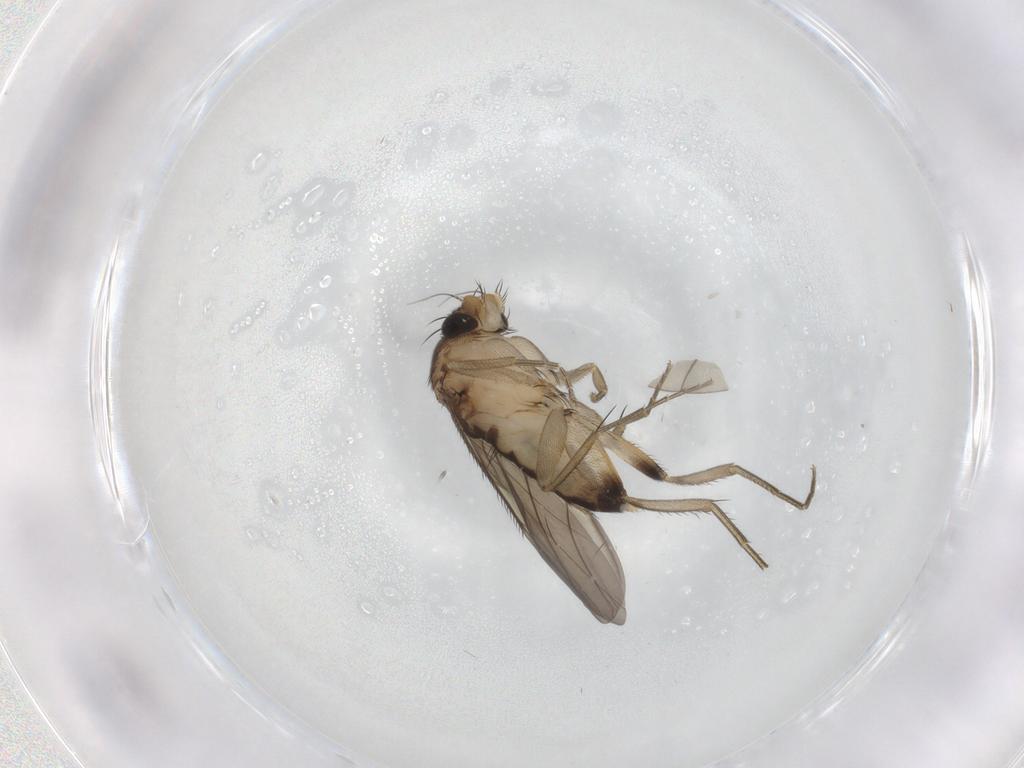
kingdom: Animalia
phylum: Arthropoda
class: Insecta
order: Diptera
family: Phoridae
